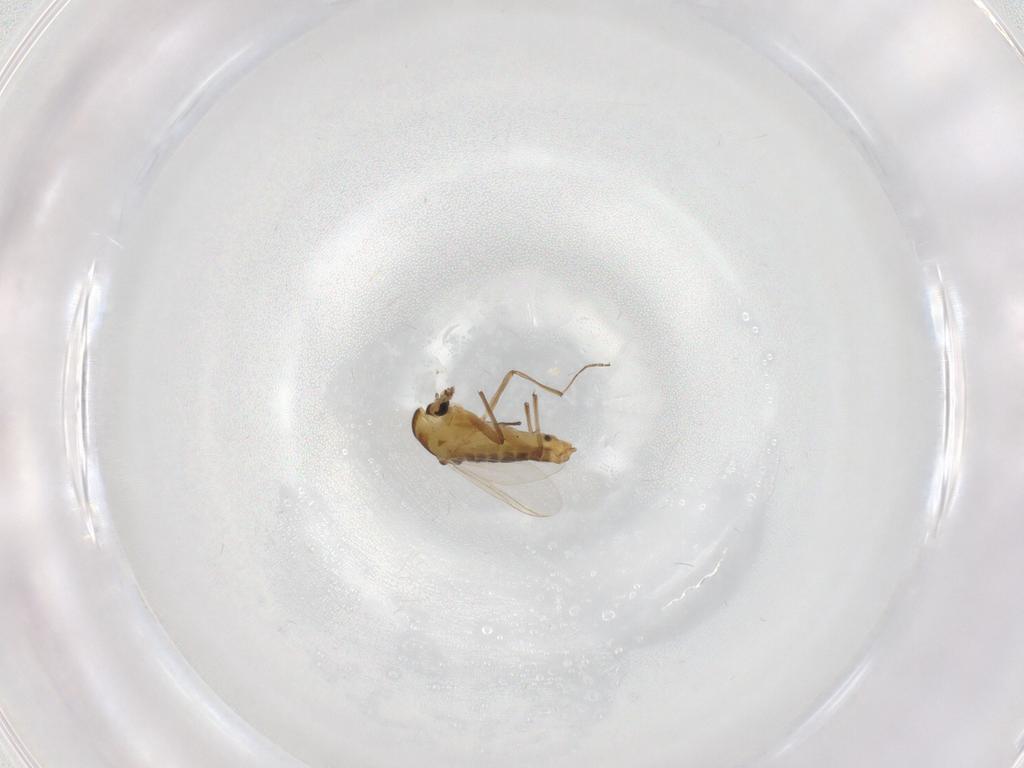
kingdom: Animalia
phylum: Arthropoda
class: Insecta
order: Diptera
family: Chironomidae
